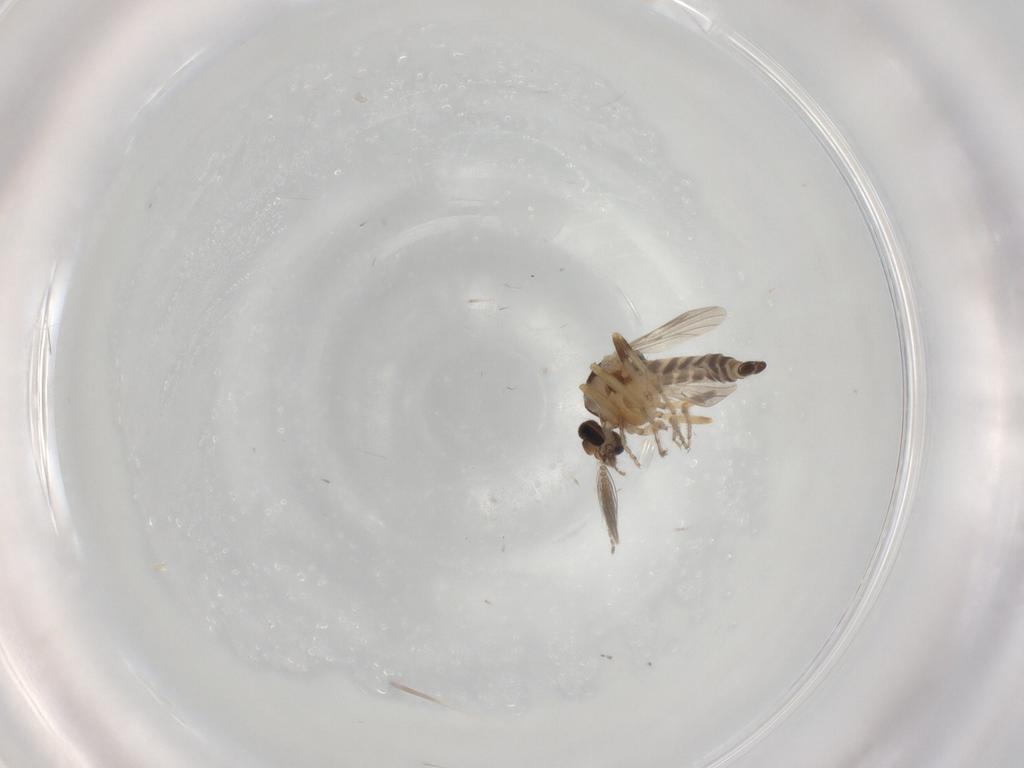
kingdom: Animalia
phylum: Arthropoda
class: Insecta
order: Diptera
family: Ceratopogonidae
